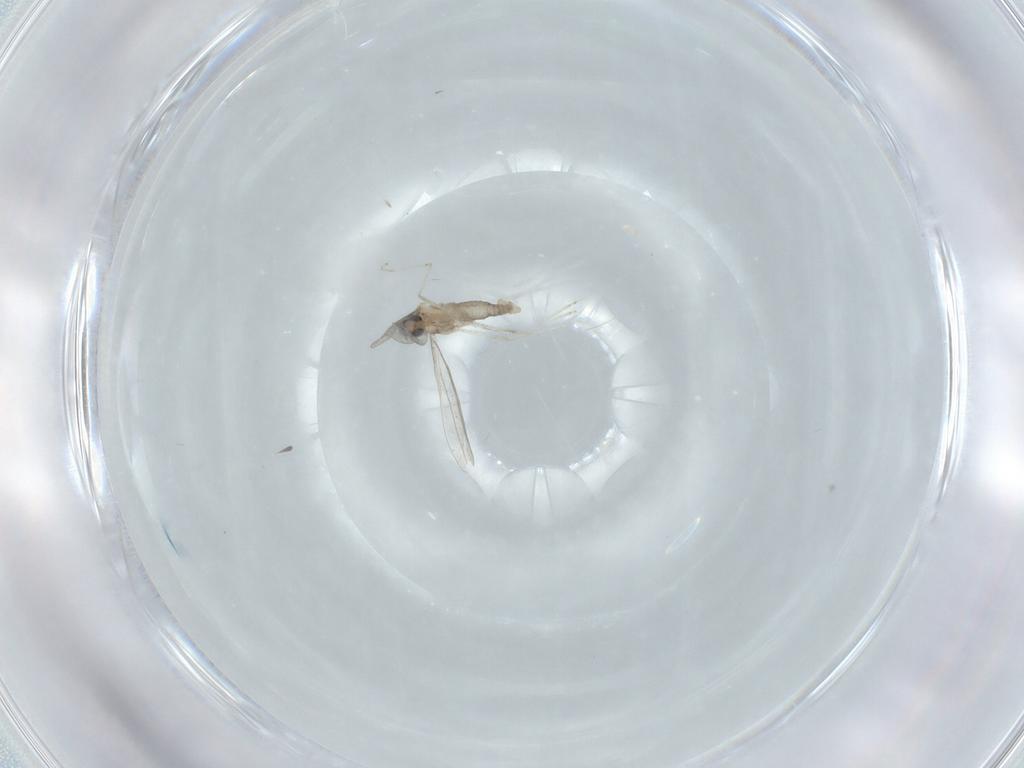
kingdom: Animalia
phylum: Arthropoda
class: Insecta
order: Diptera
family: Cecidomyiidae
